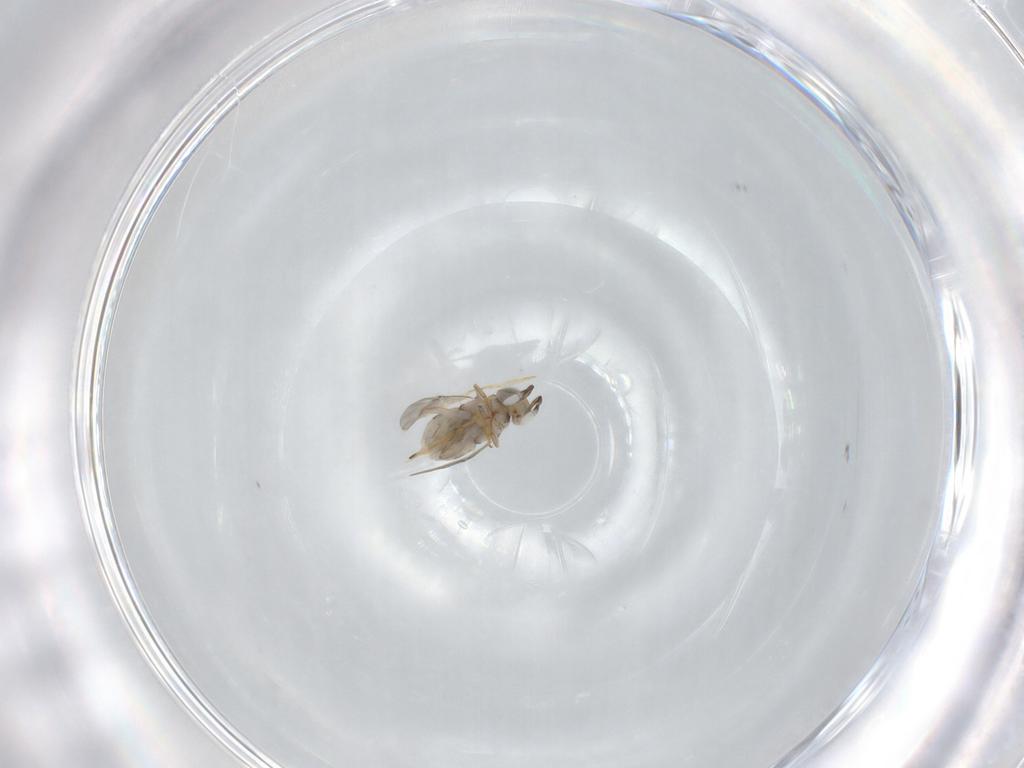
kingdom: Animalia
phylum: Arthropoda
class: Insecta
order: Hymenoptera
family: Encyrtidae
